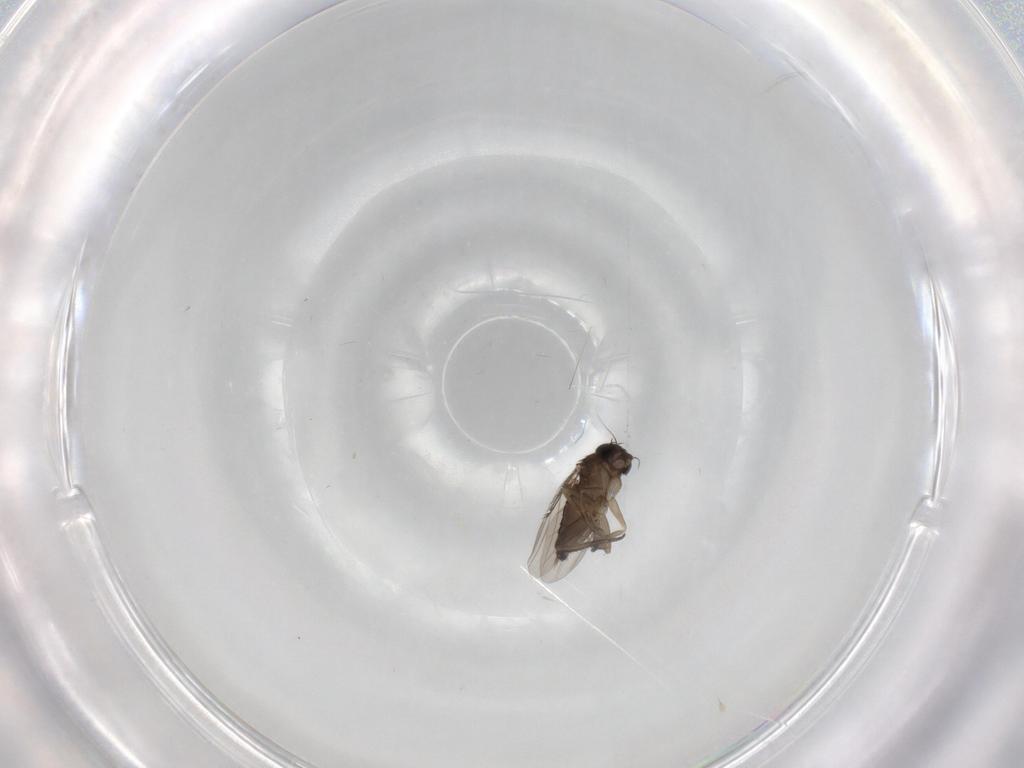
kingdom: Animalia
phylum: Arthropoda
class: Insecta
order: Diptera
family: Phoridae
